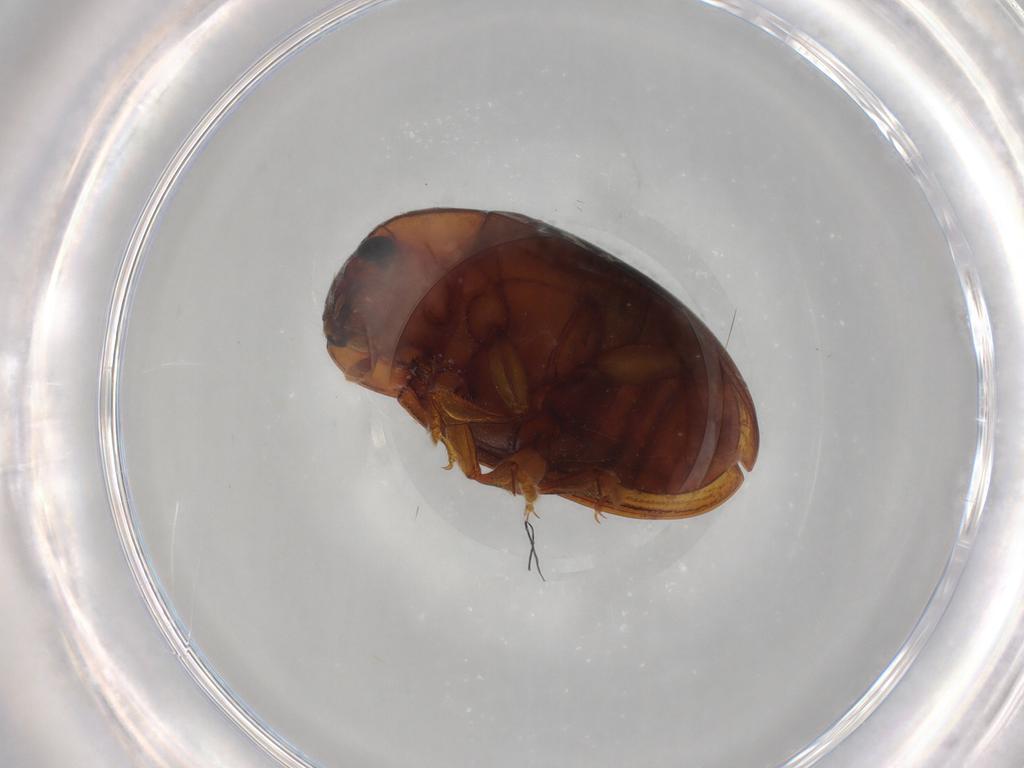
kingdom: Animalia
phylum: Arthropoda
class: Insecta
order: Coleoptera
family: Erotylidae
